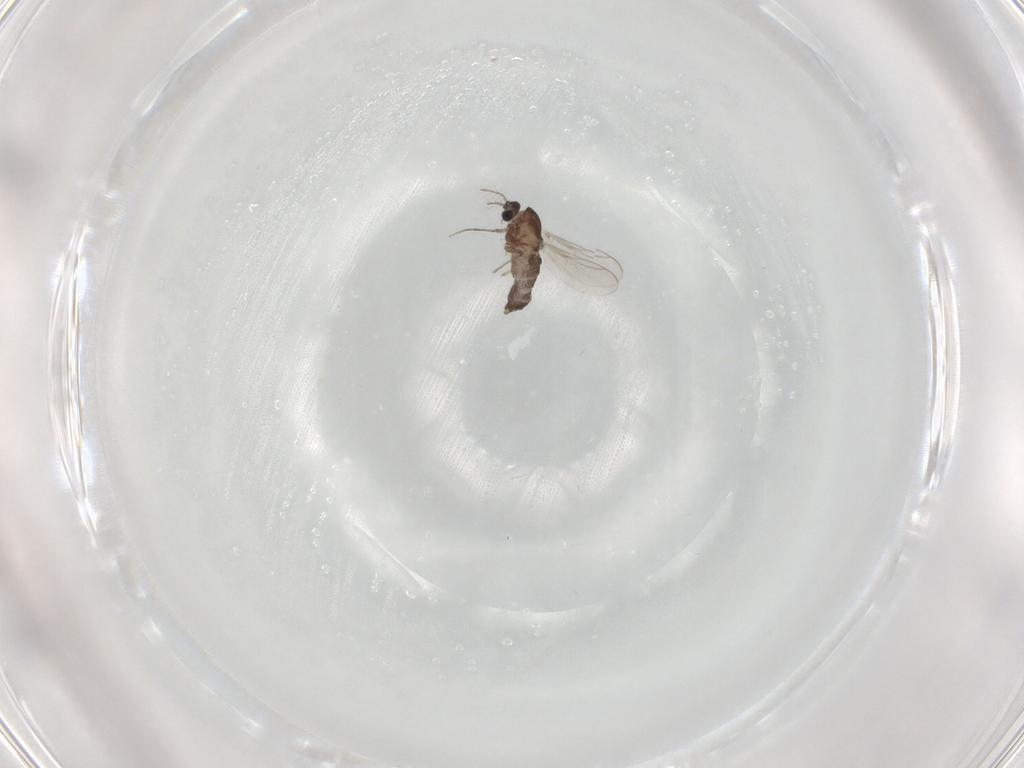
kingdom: Animalia
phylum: Arthropoda
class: Insecta
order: Diptera
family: Chironomidae
